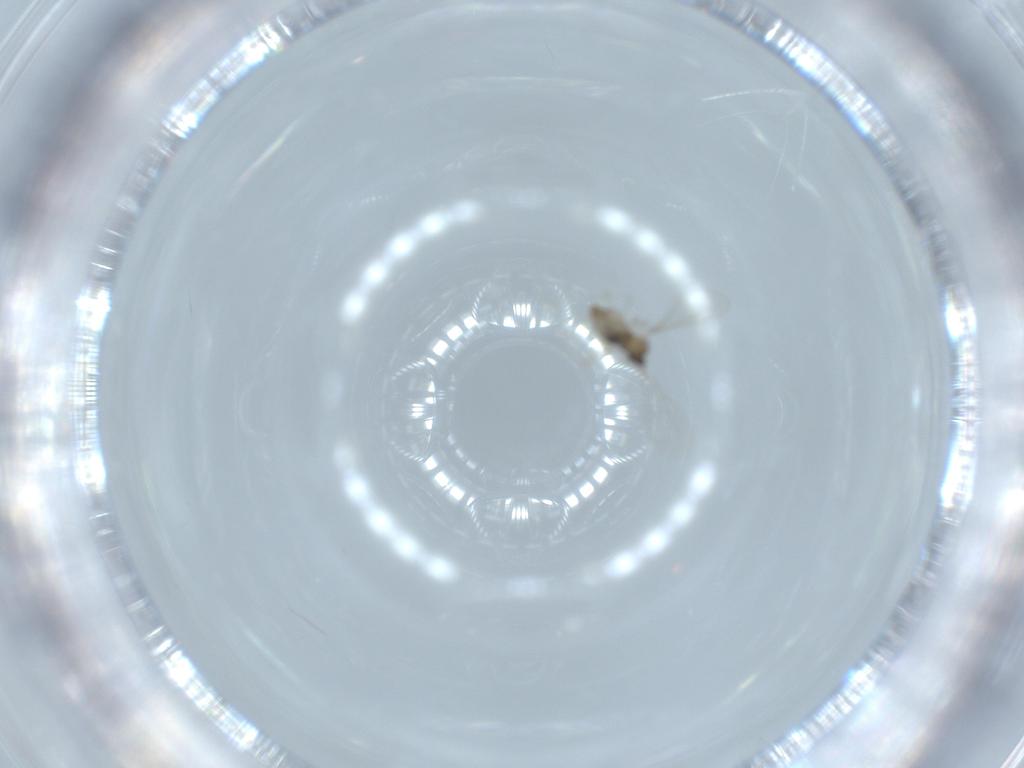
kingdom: Animalia
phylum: Arthropoda
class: Insecta
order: Diptera
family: Cecidomyiidae
